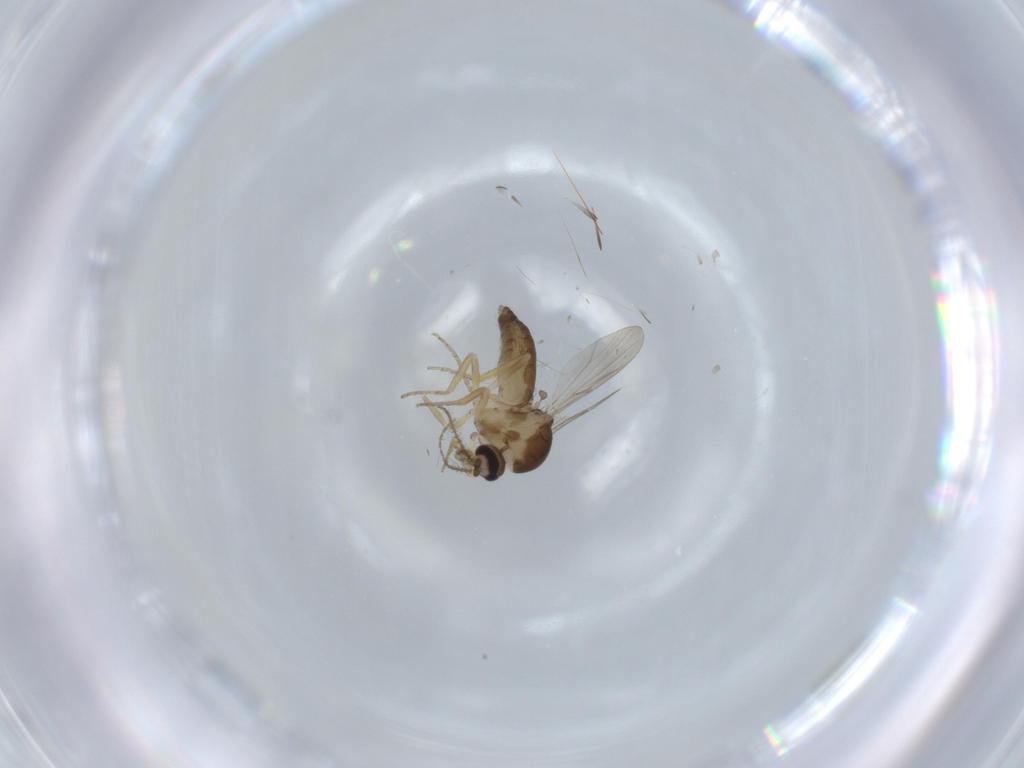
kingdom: Animalia
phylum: Arthropoda
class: Insecta
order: Diptera
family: Ceratopogonidae
